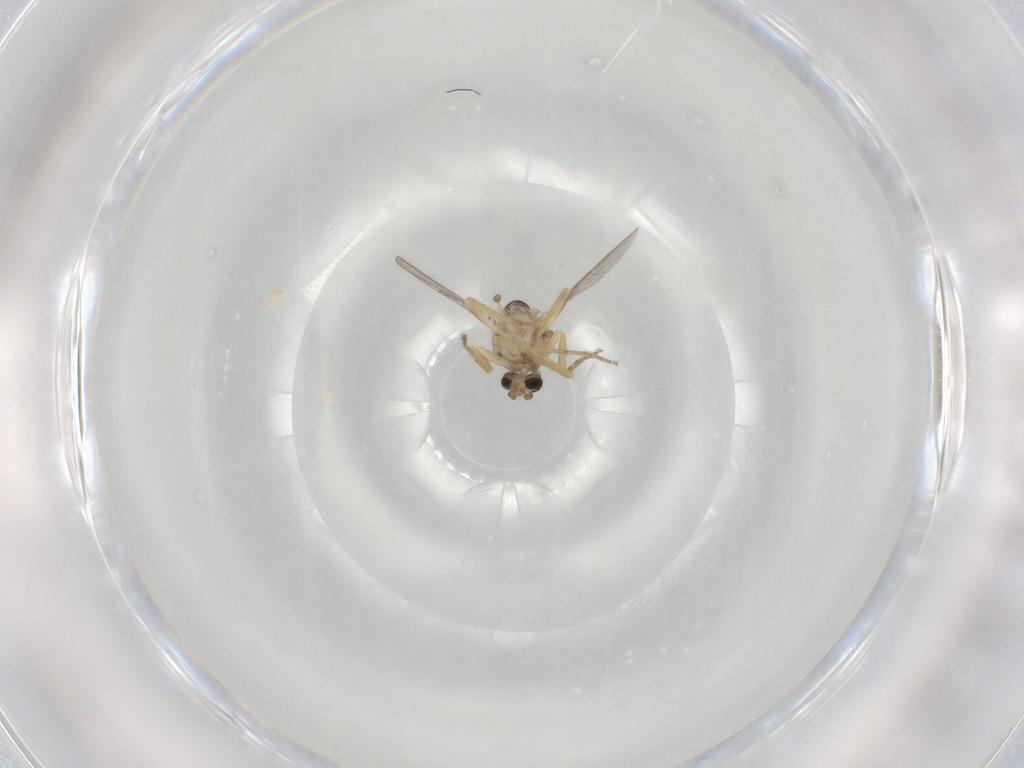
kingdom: Animalia
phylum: Arthropoda
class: Insecta
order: Diptera
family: Ceratopogonidae
